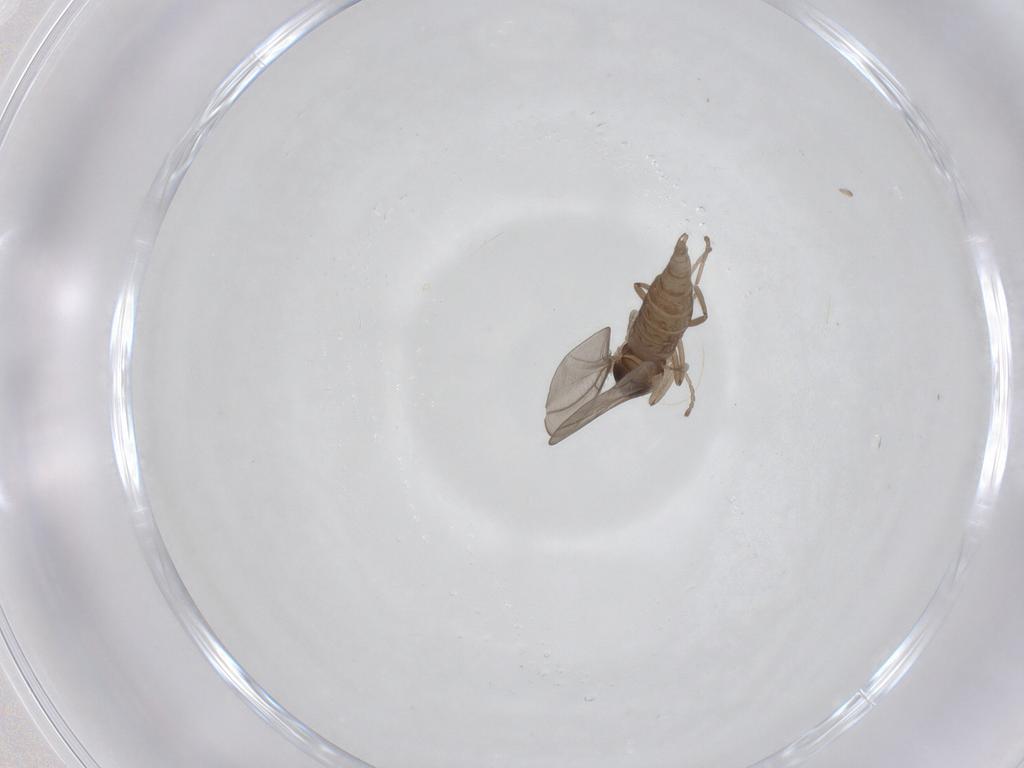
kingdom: Animalia
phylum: Arthropoda
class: Insecta
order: Diptera
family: Cecidomyiidae
